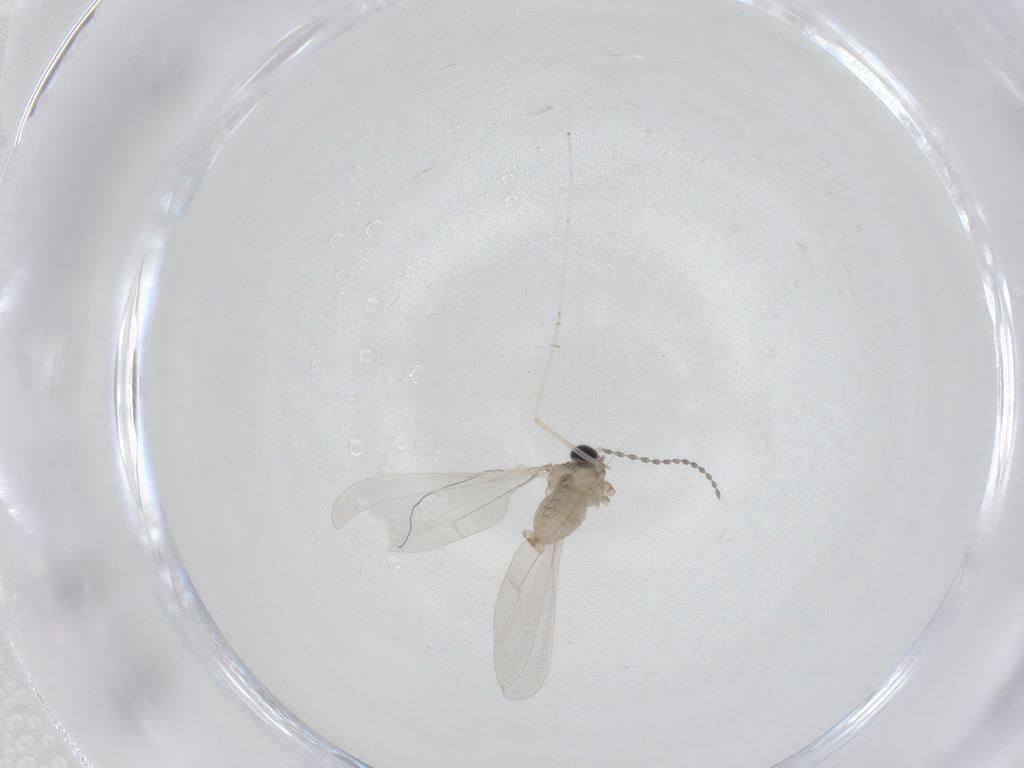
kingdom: Animalia
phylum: Arthropoda
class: Insecta
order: Diptera
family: Cecidomyiidae
